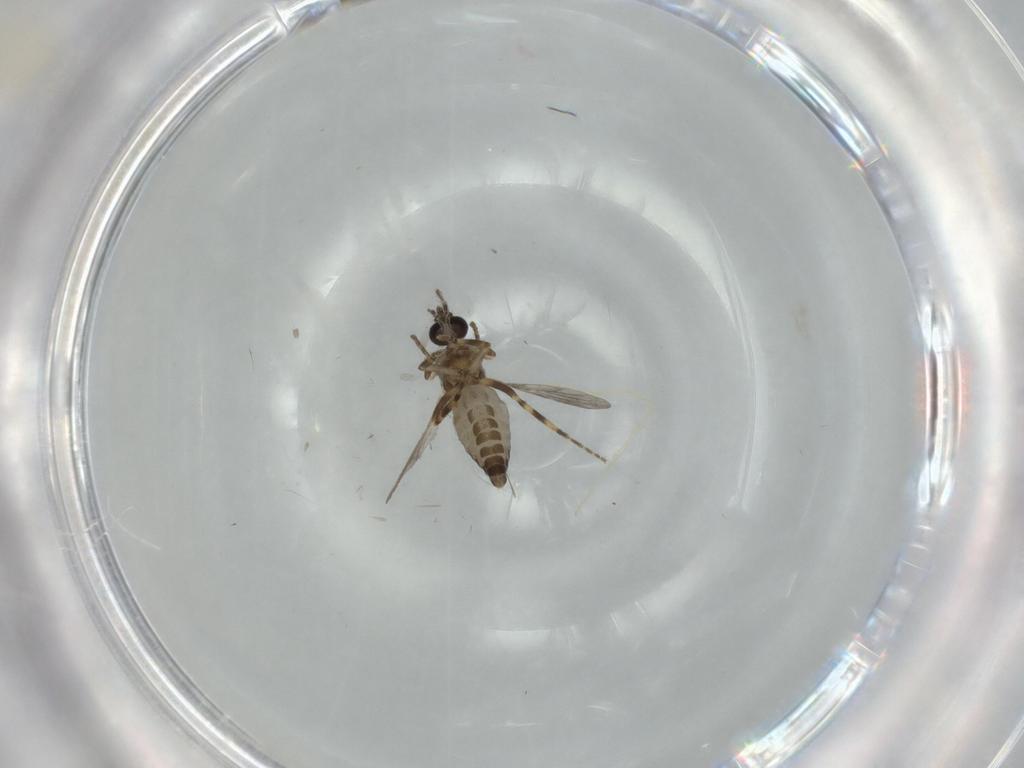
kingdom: Animalia
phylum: Arthropoda
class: Insecta
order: Diptera
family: Ceratopogonidae
